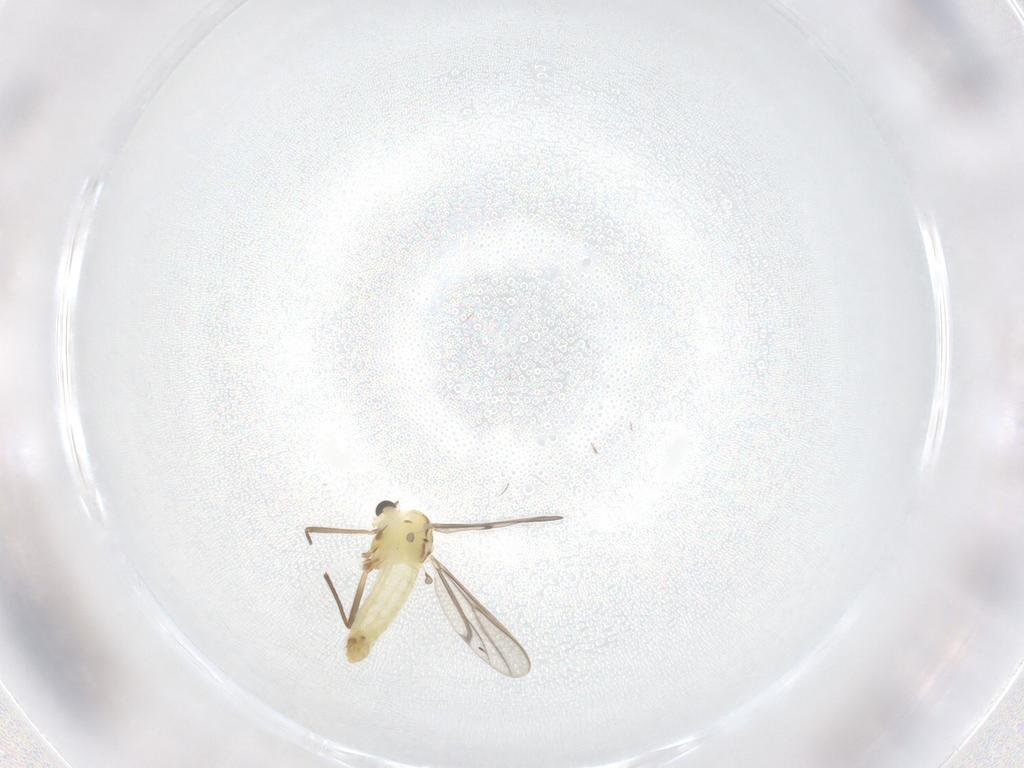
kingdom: Animalia
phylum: Arthropoda
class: Insecta
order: Diptera
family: Chironomidae
